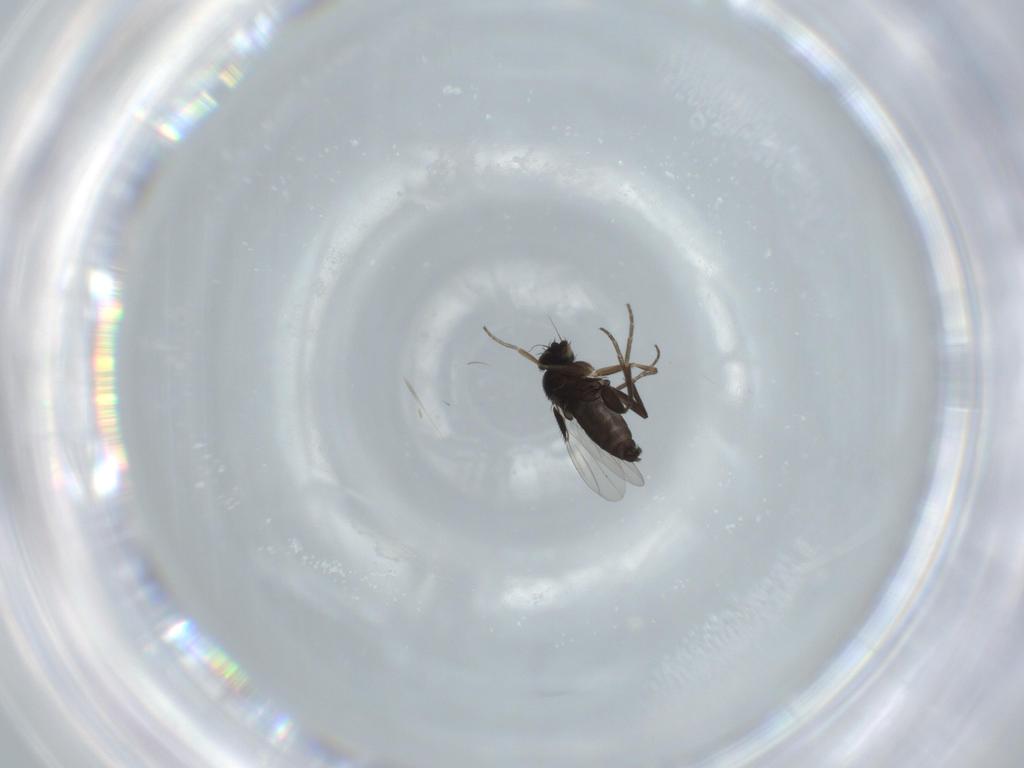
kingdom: Animalia
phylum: Arthropoda
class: Insecta
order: Diptera
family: Phoridae
